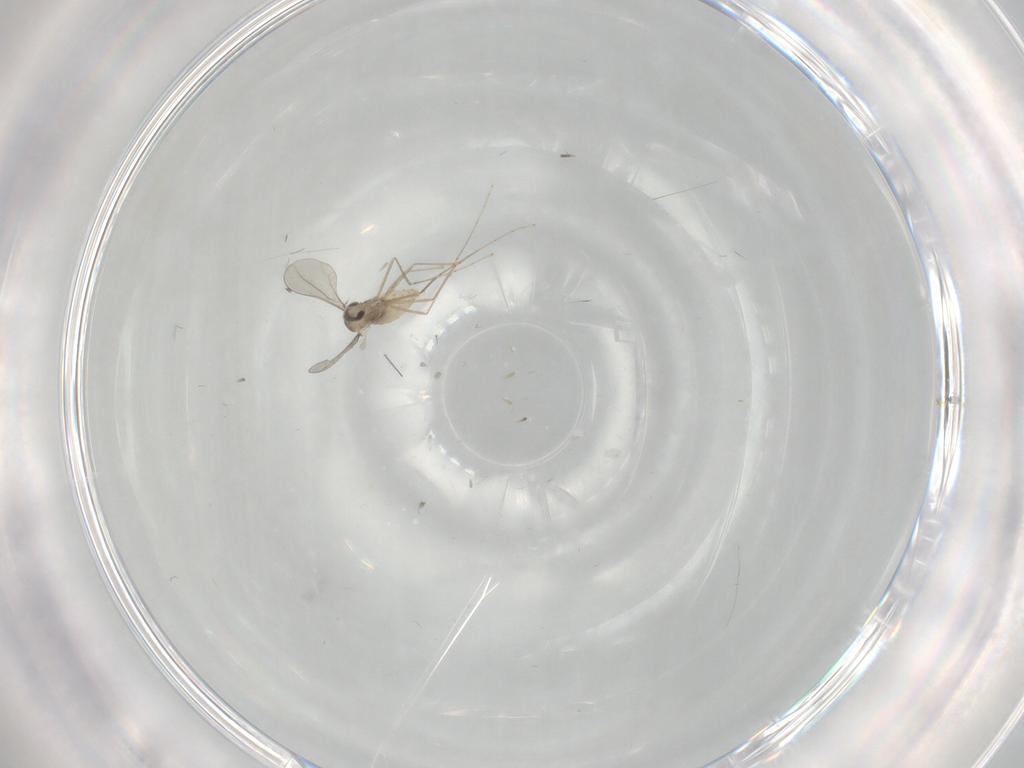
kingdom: Animalia
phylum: Arthropoda
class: Insecta
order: Diptera
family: Cecidomyiidae
